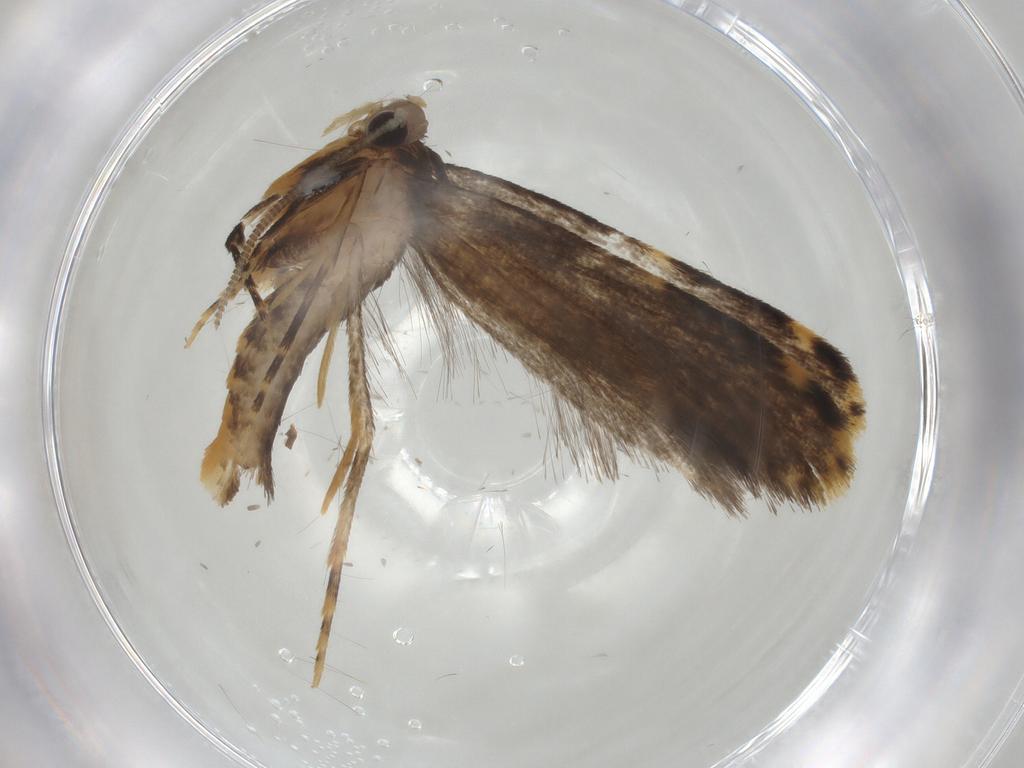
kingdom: Animalia
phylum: Arthropoda
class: Insecta
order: Lepidoptera
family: Tineidae
